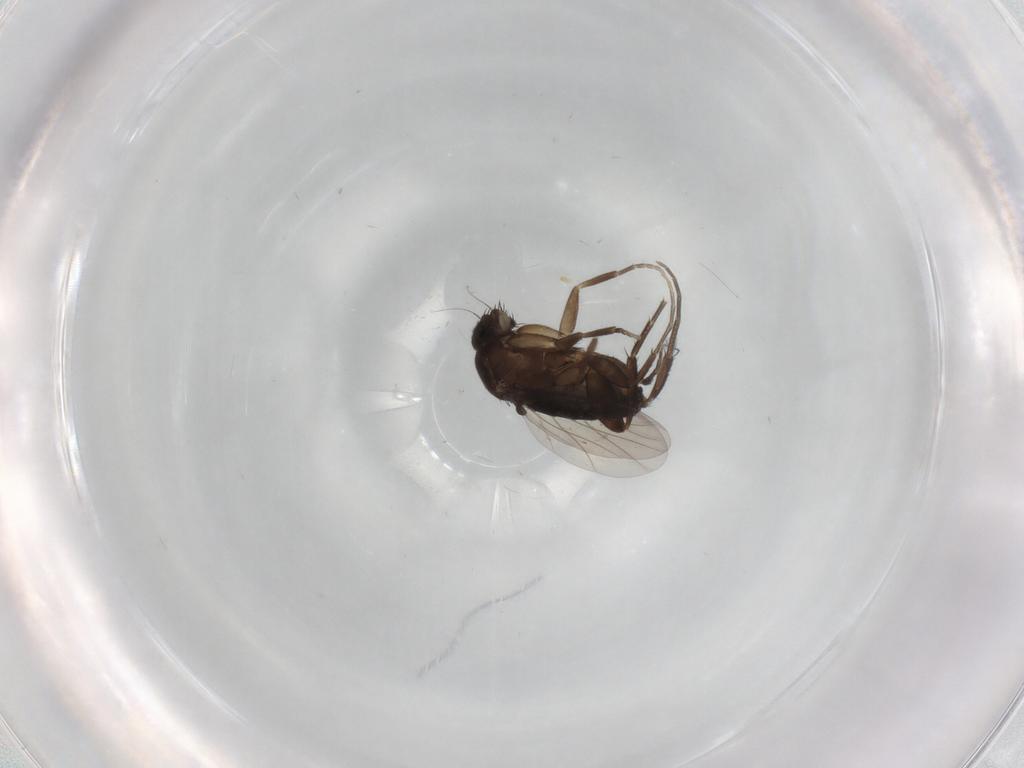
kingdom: Animalia
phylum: Arthropoda
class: Insecta
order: Diptera
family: Phoridae
